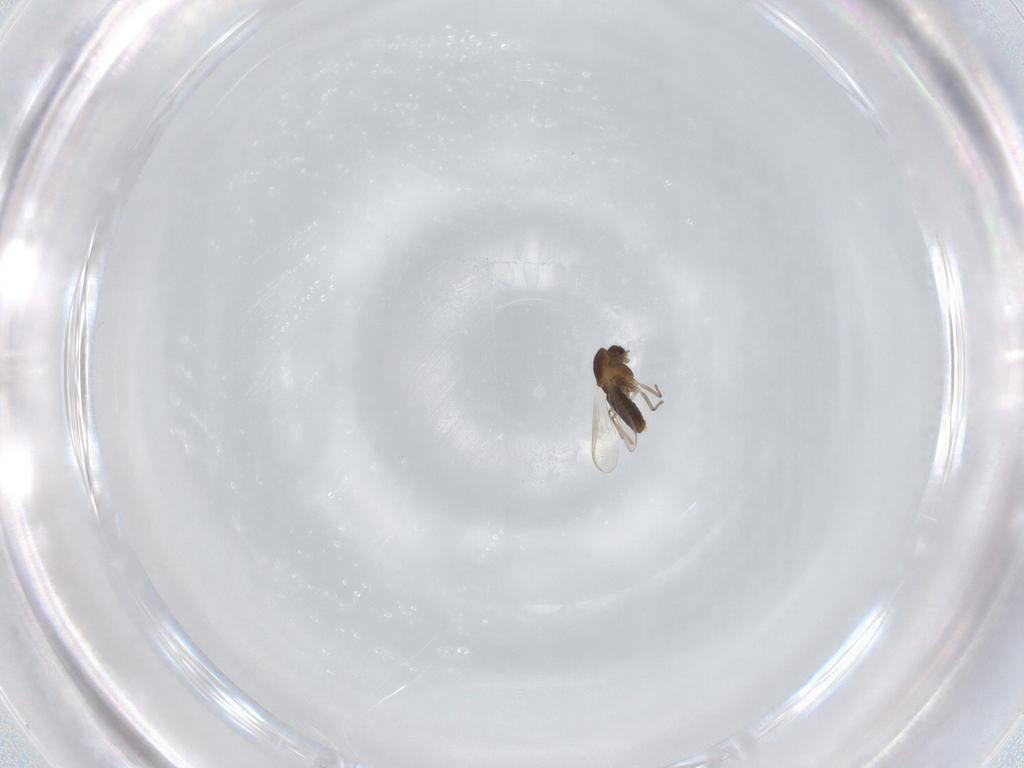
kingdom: Animalia
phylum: Arthropoda
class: Insecta
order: Diptera
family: Chironomidae
